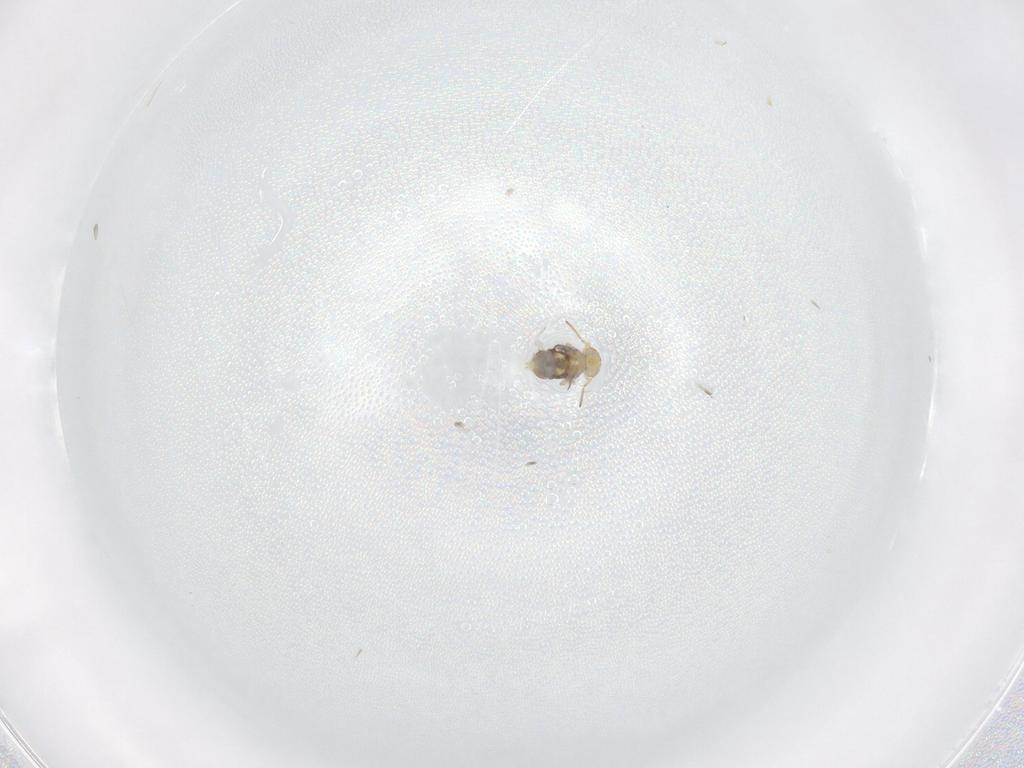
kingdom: Animalia
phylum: Arthropoda
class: Collembola
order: Symphypleona
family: Bourletiellidae
